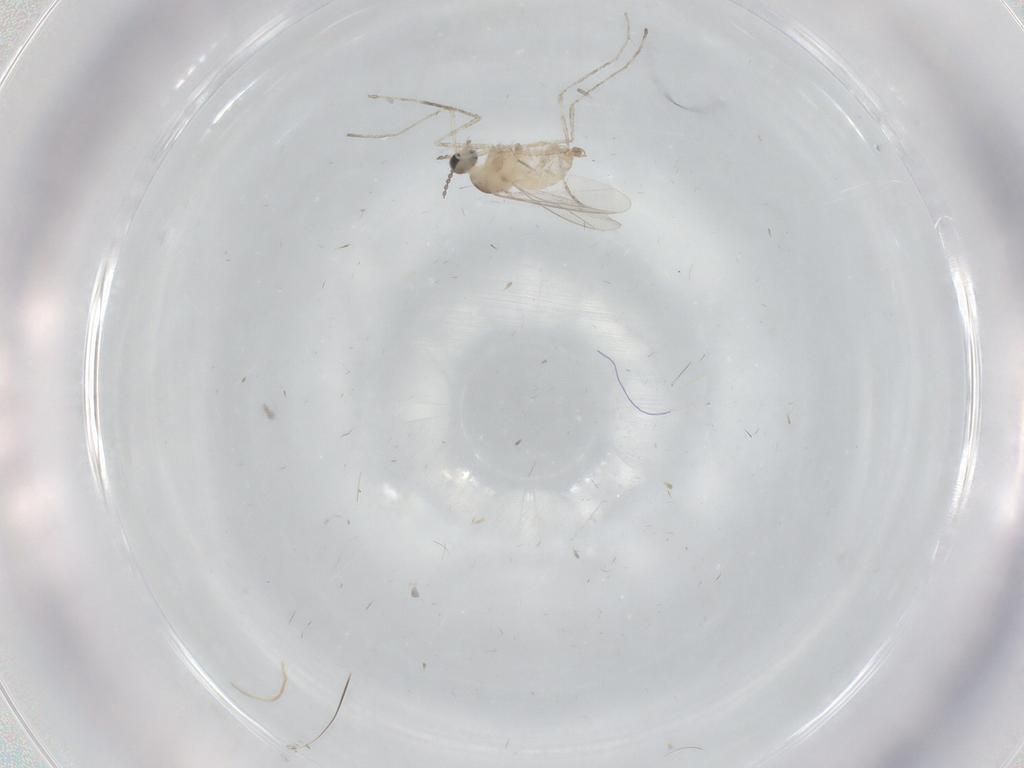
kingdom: Animalia
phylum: Arthropoda
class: Insecta
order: Diptera
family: Cecidomyiidae
